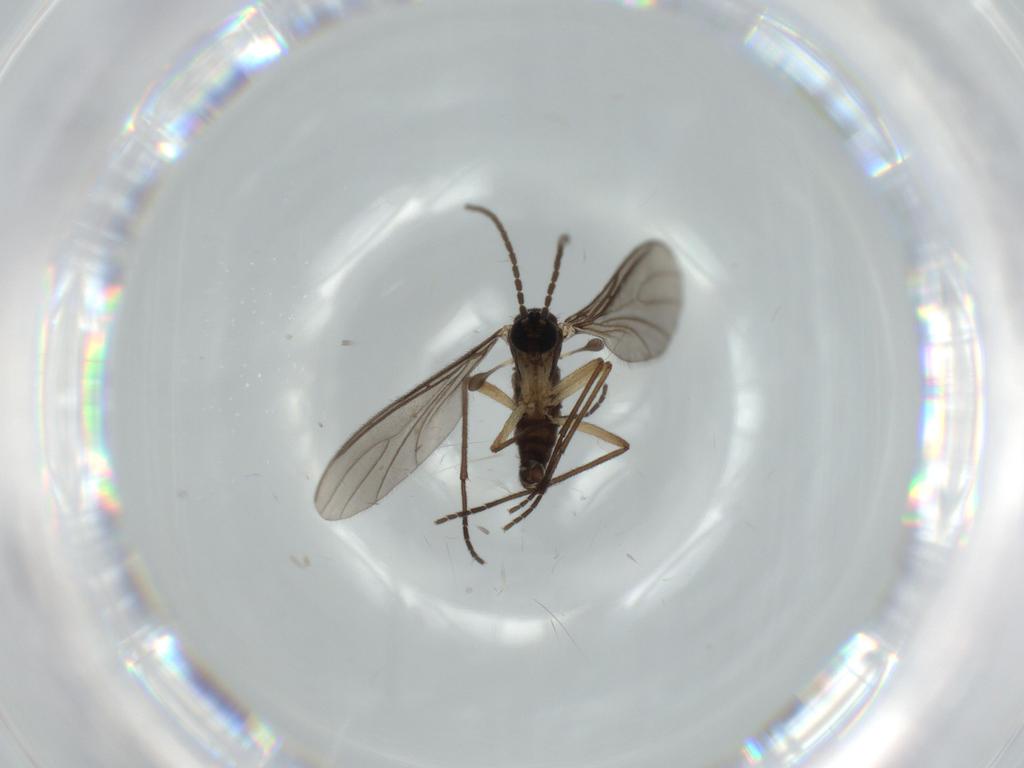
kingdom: Animalia
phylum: Arthropoda
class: Insecta
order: Diptera
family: Sciaridae
